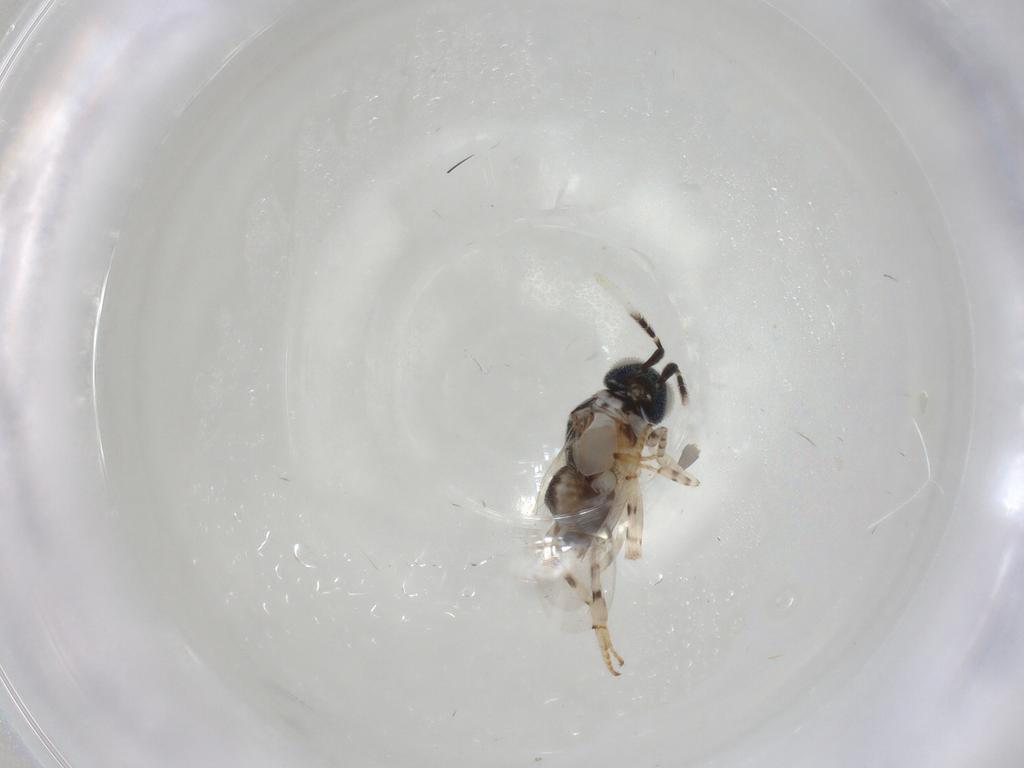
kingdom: Animalia
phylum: Arthropoda
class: Insecta
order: Hymenoptera
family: Ichneumonidae
